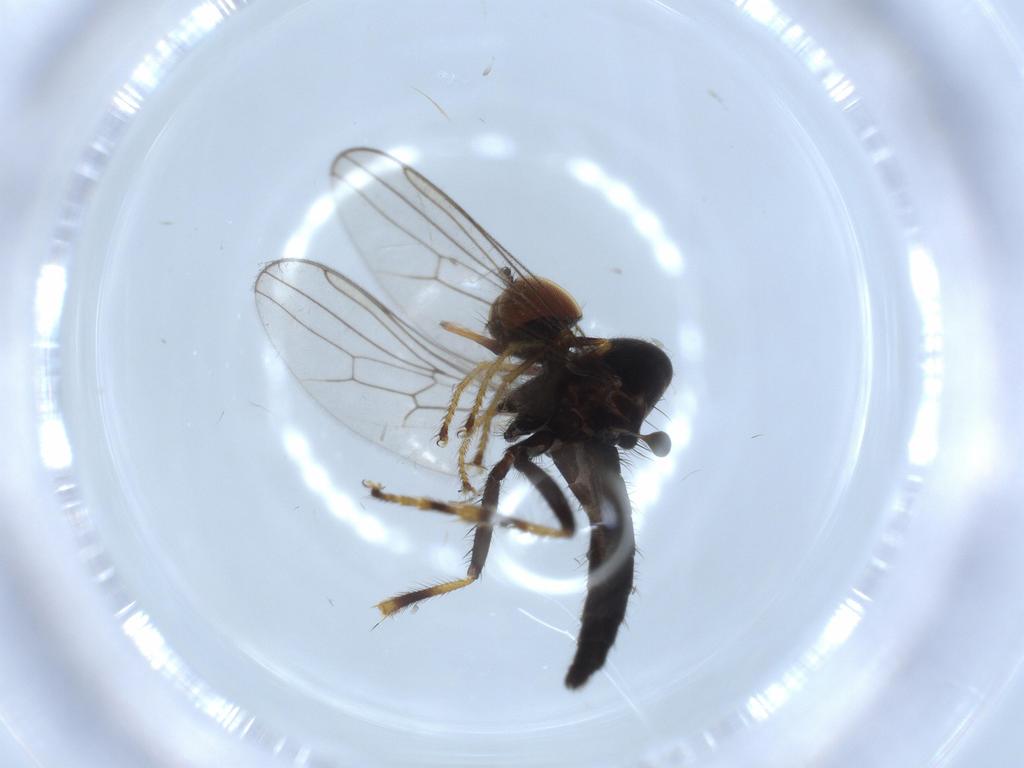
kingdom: Animalia
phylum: Arthropoda
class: Insecta
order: Diptera
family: Hybotidae
